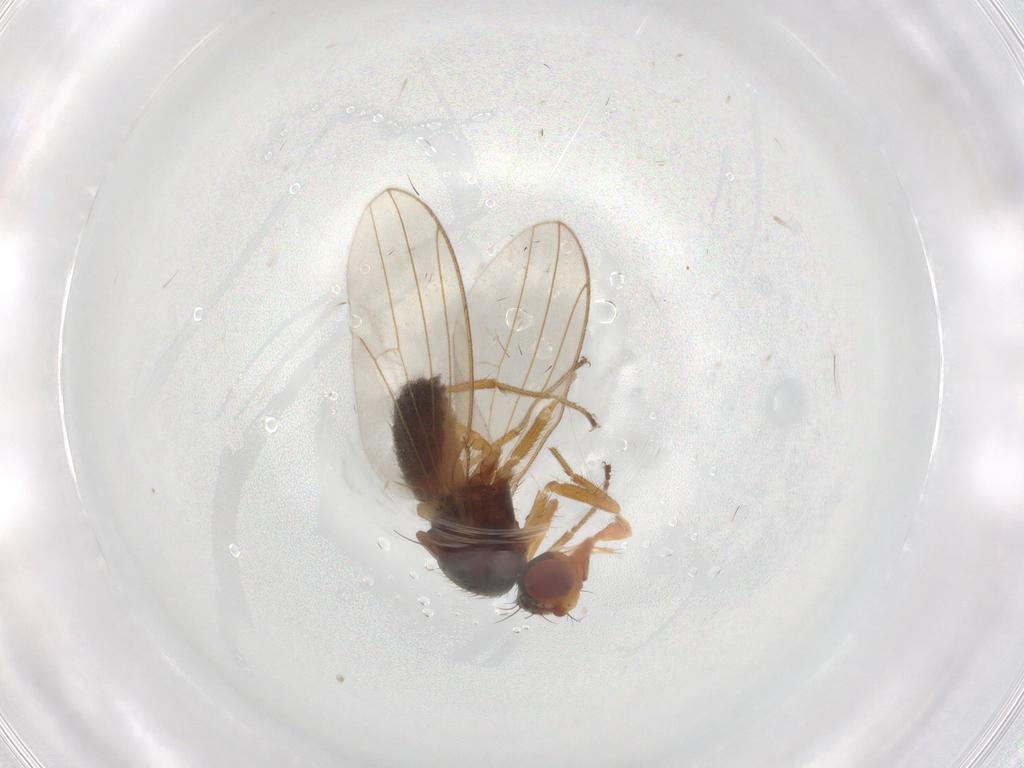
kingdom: Animalia
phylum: Arthropoda
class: Insecta
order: Diptera
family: Drosophilidae
